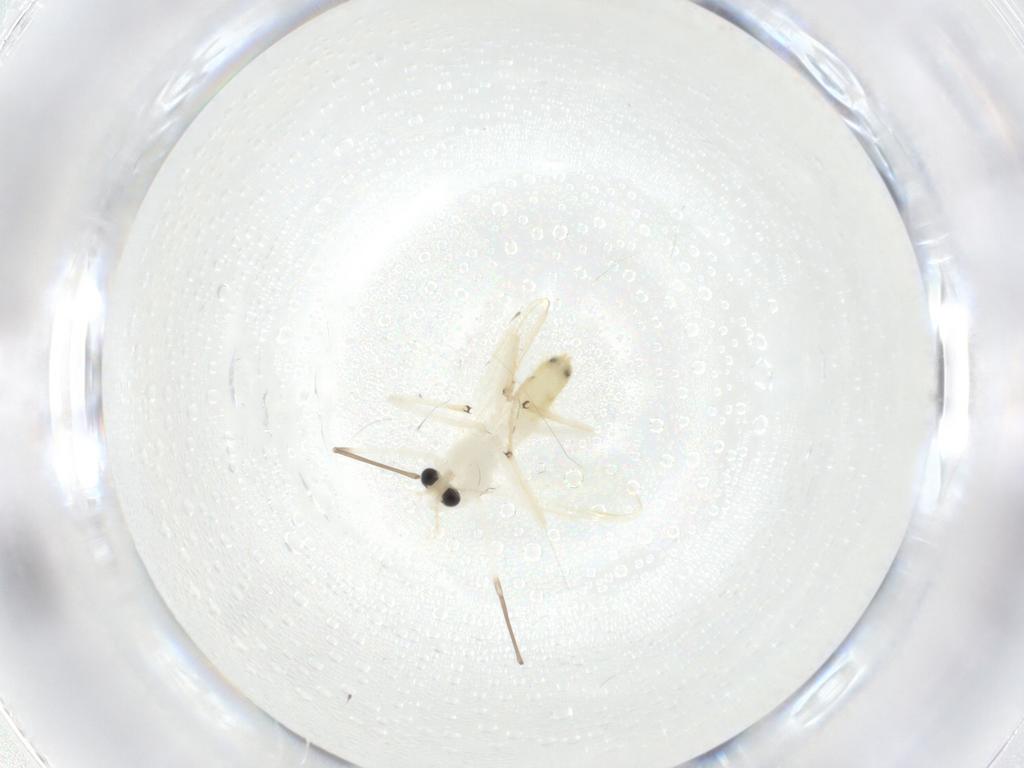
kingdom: Animalia
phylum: Arthropoda
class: Insecta
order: Diptera
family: Chironomidae
